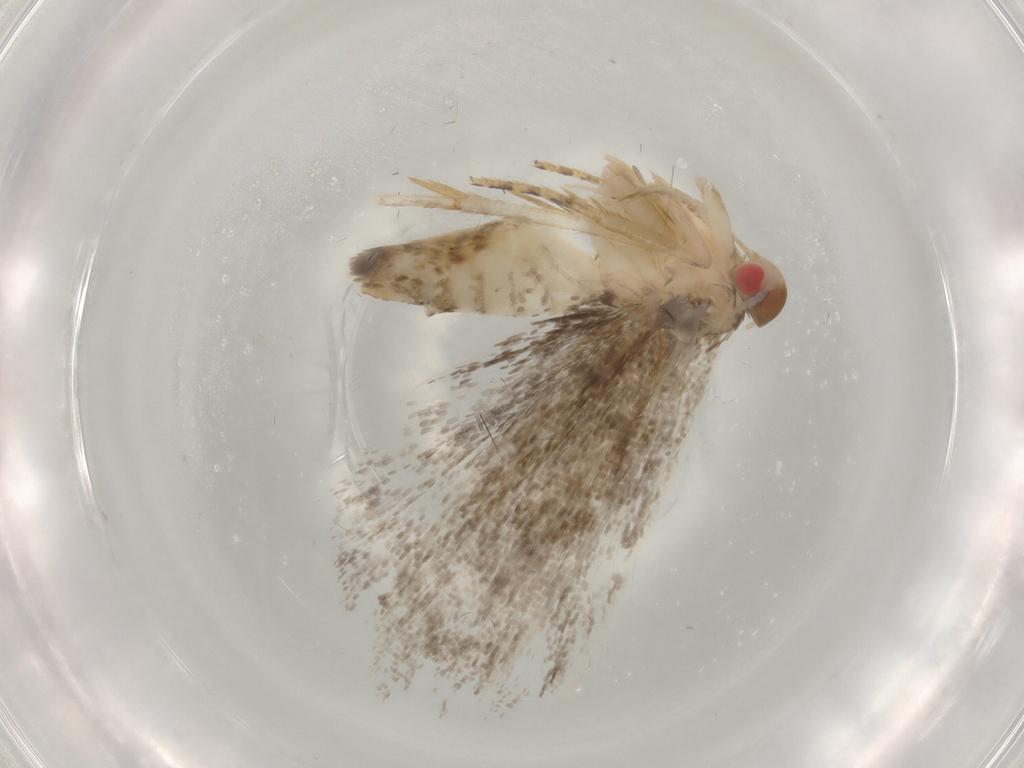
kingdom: Animalia
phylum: Arthropoda
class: Insecta
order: Lepidoptera
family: Crambidae
